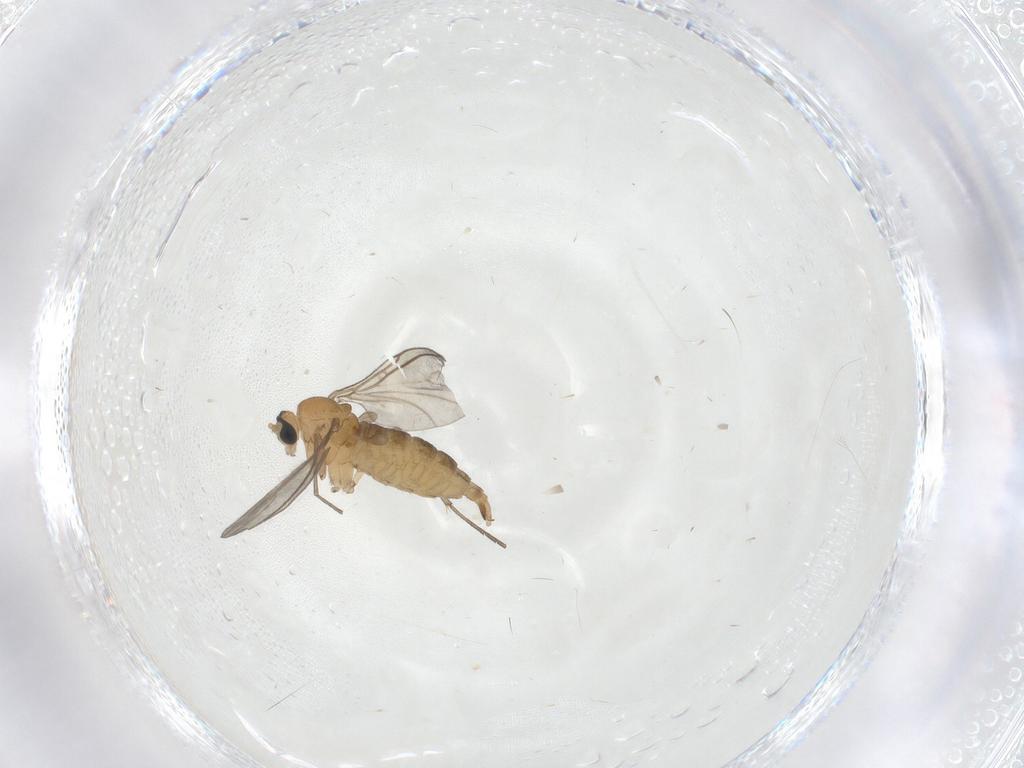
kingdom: Animalia
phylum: Arthropoda
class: Insecta
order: Diptera
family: Sciaridae
